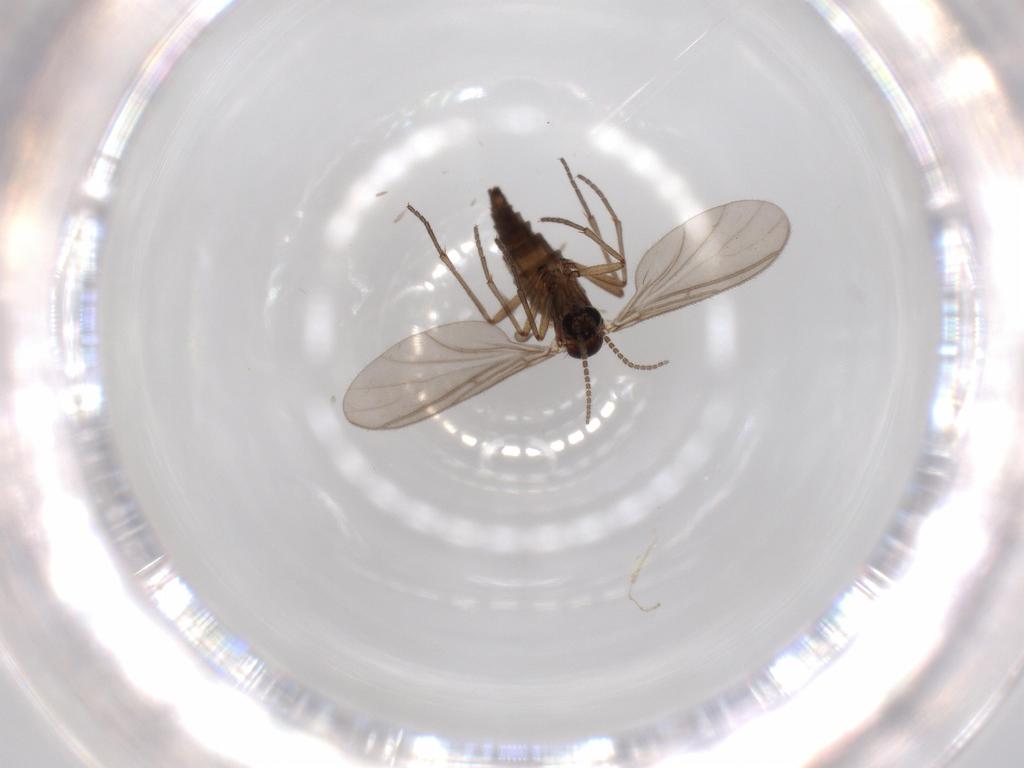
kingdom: Animalia
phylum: Arthropoda
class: Insecta
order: Diptera
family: Sciaridae
